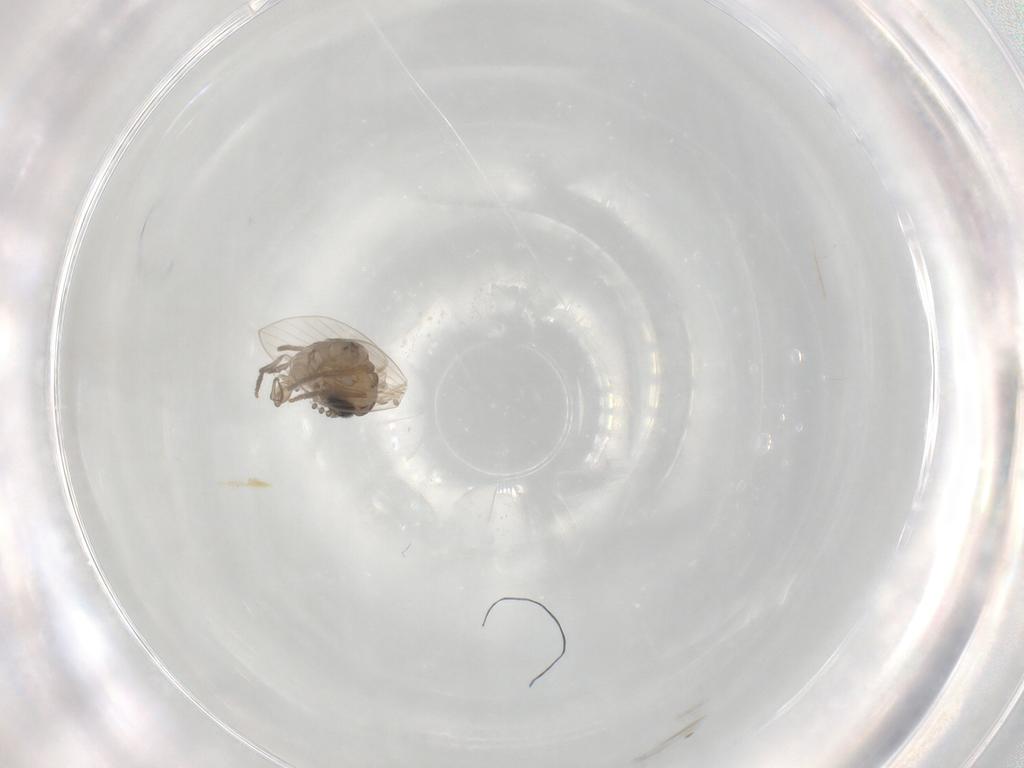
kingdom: Animalia
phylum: Arthropoda
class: Insecta
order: Diptera
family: Psychodidae
